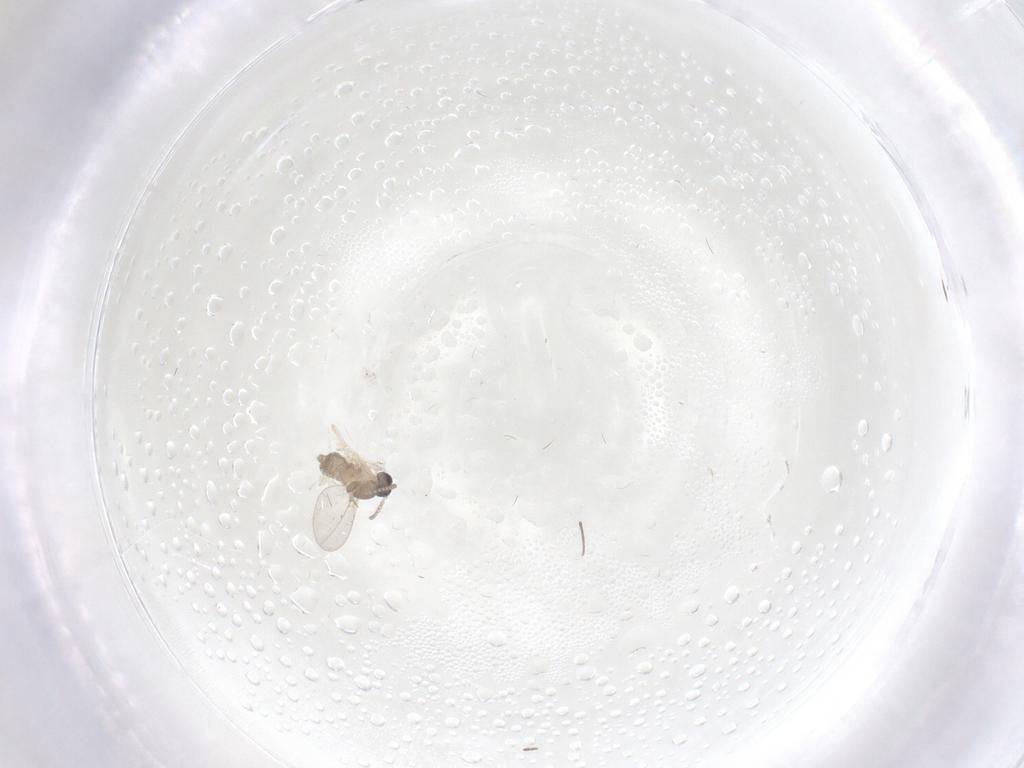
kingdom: Animalia
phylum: Arthropoda
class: Insecta
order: Diptera
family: Cecidomyiidae
